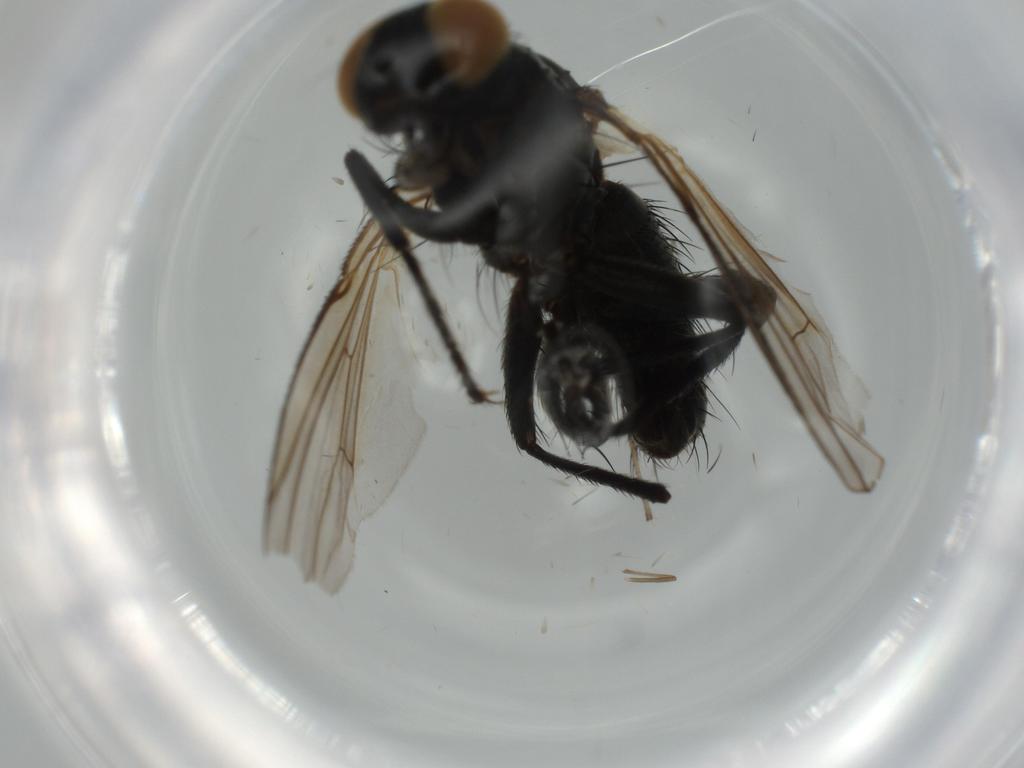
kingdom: Animalia
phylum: Arthropoda
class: Insecta
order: Diptera
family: Muscidae
